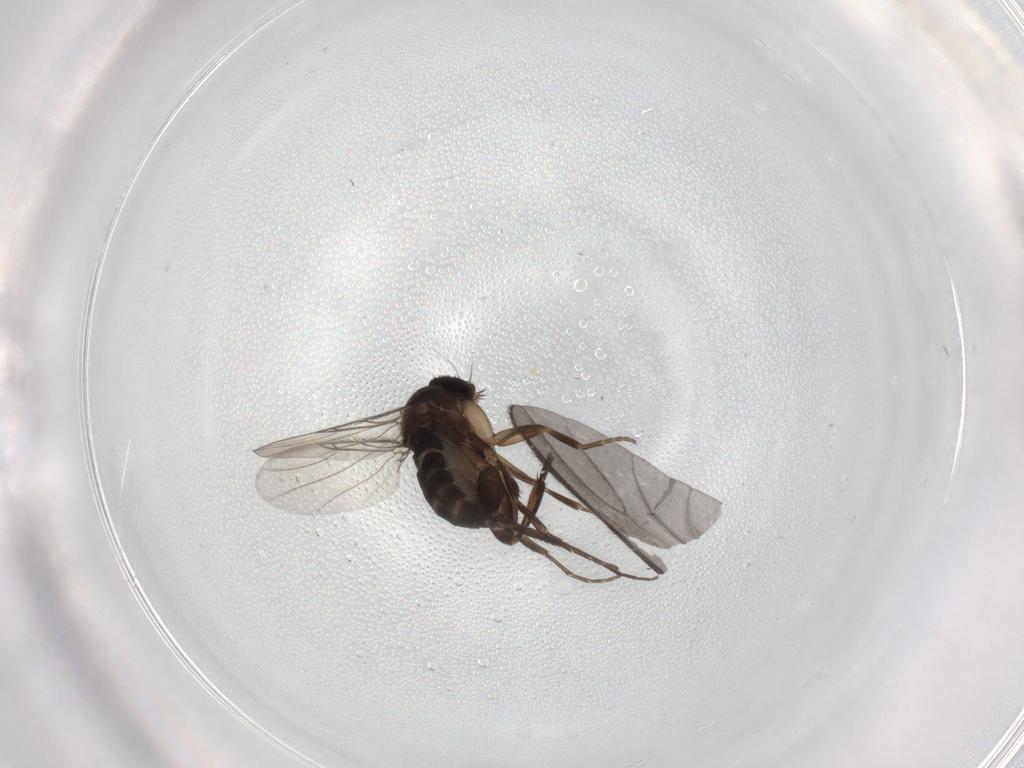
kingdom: Animalia
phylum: Arthropoda
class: Insecta
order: Diptera
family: Phoridae
